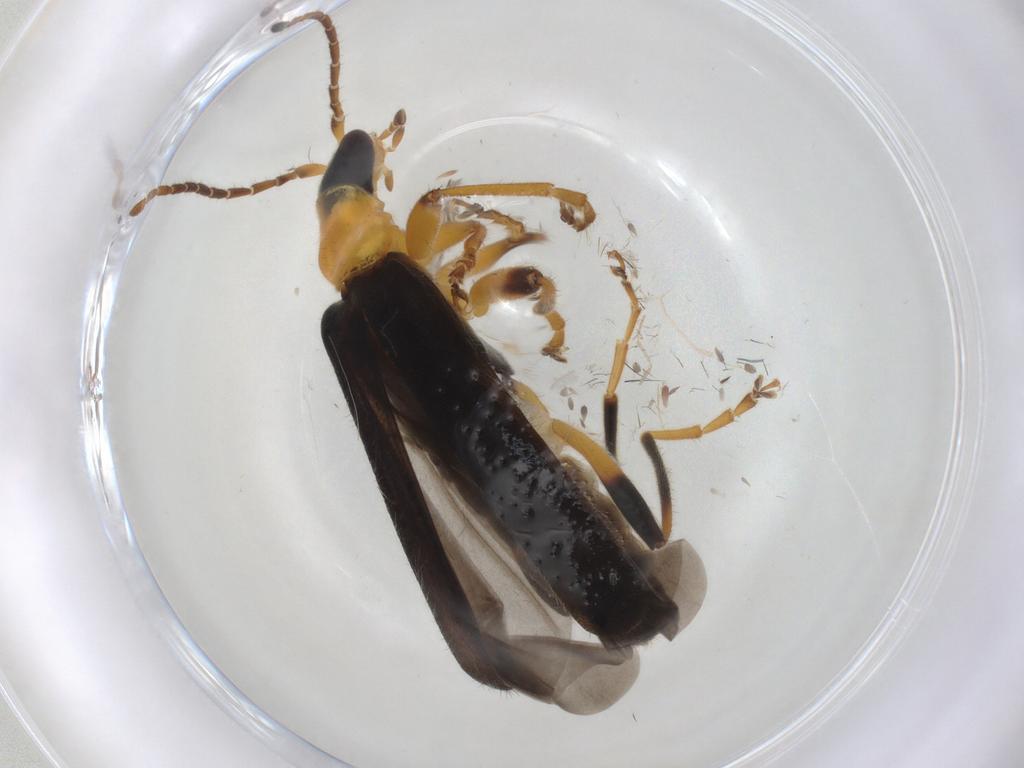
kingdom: Animalia
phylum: Arthropoda
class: Insecta
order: Coleoptera
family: Cantharidae
